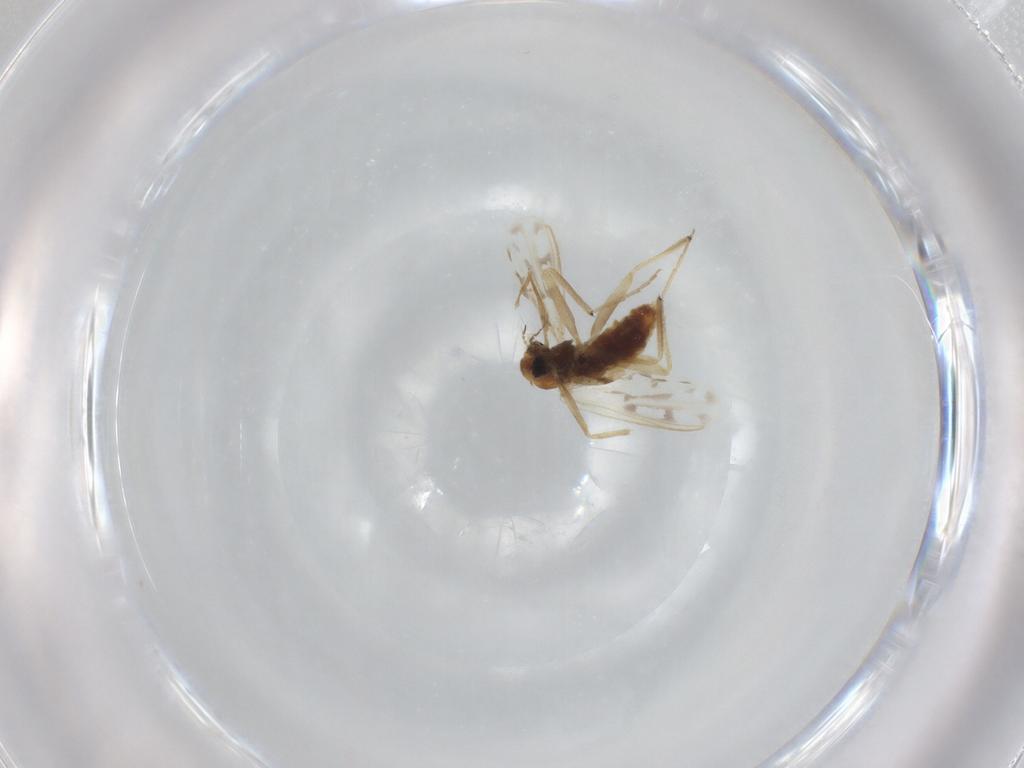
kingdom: Animalia
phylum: Arthropoda
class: Insecta
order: Diptera
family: Chironomidae
